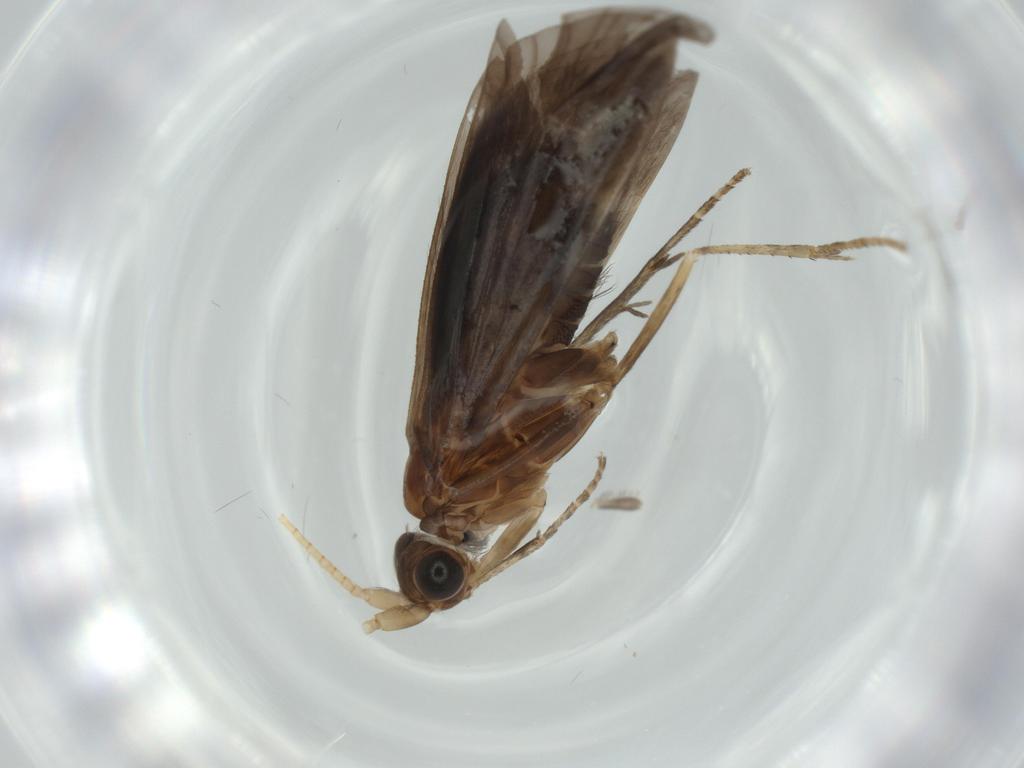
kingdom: Animalia
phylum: Arthropoda
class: Insecta
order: Trichoptera
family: Helicopsychidae
